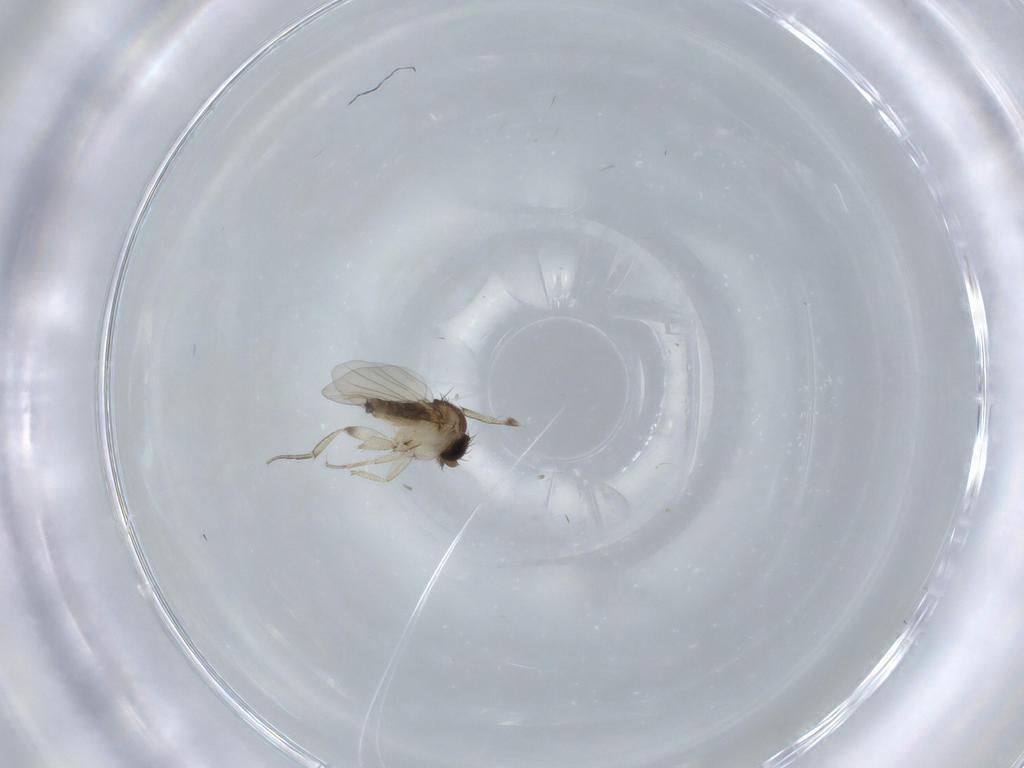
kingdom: Animalia
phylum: Arthropoda
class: Insecta
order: Diptera
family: Phoridae
